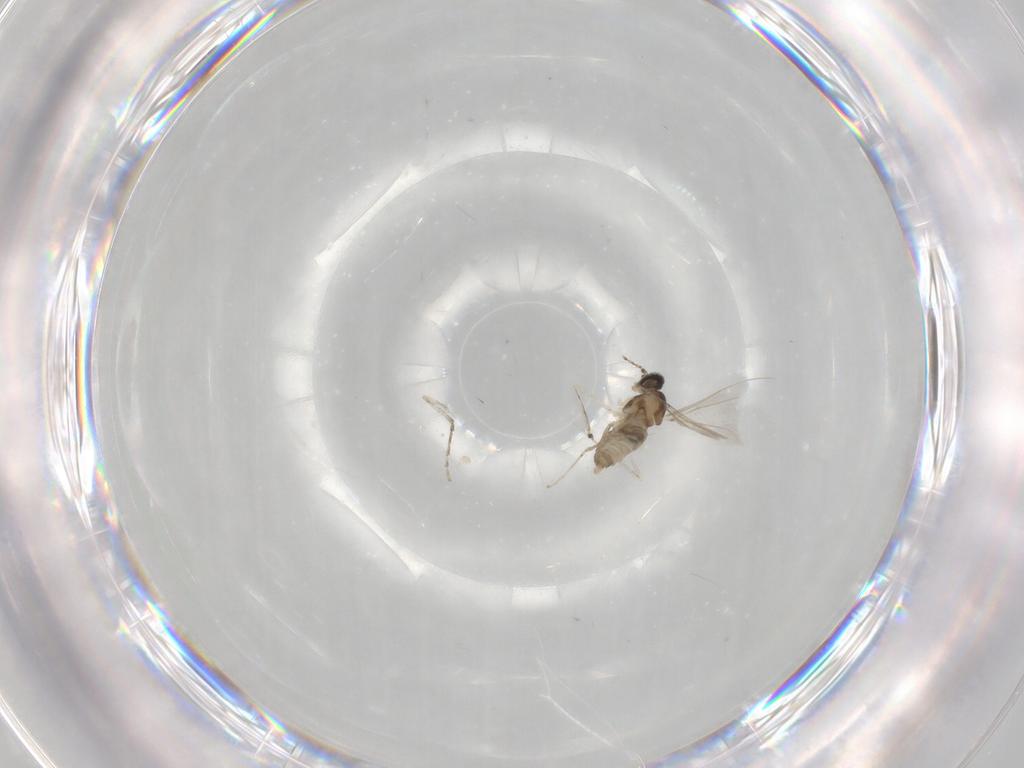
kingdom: Animalia
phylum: Arthropoda
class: Insecta
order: Diptera
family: Cecidomyiidae
